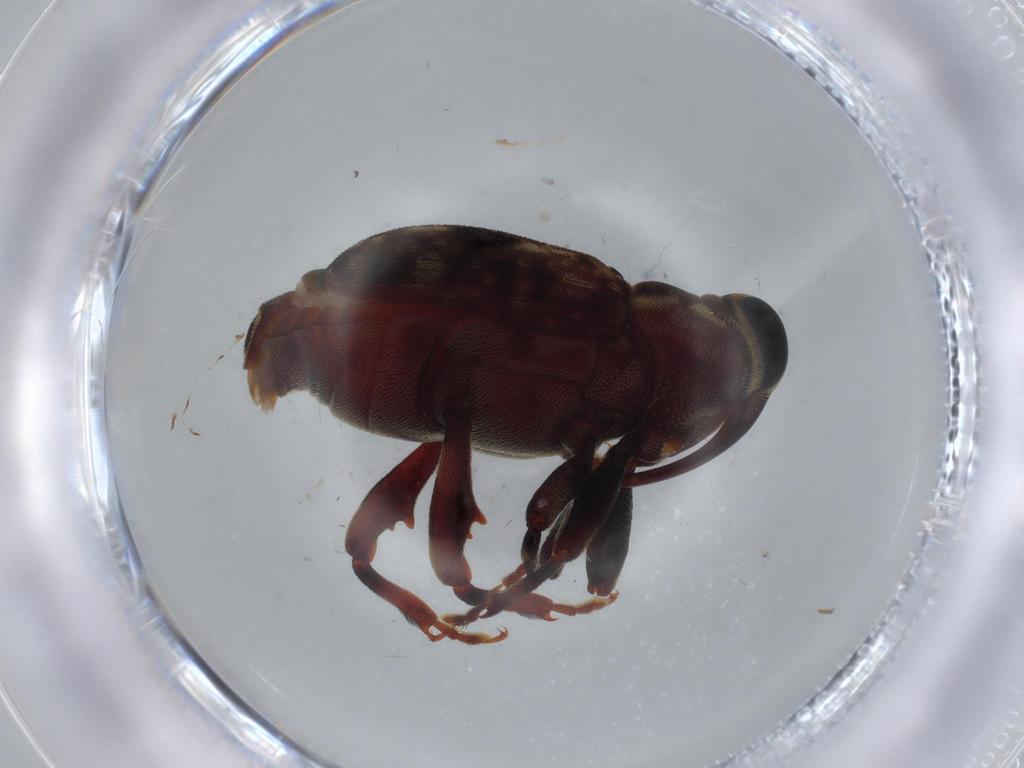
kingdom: Animalia
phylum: Arthropoda
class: Insecta
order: Coleoptera
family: Curculionidae
